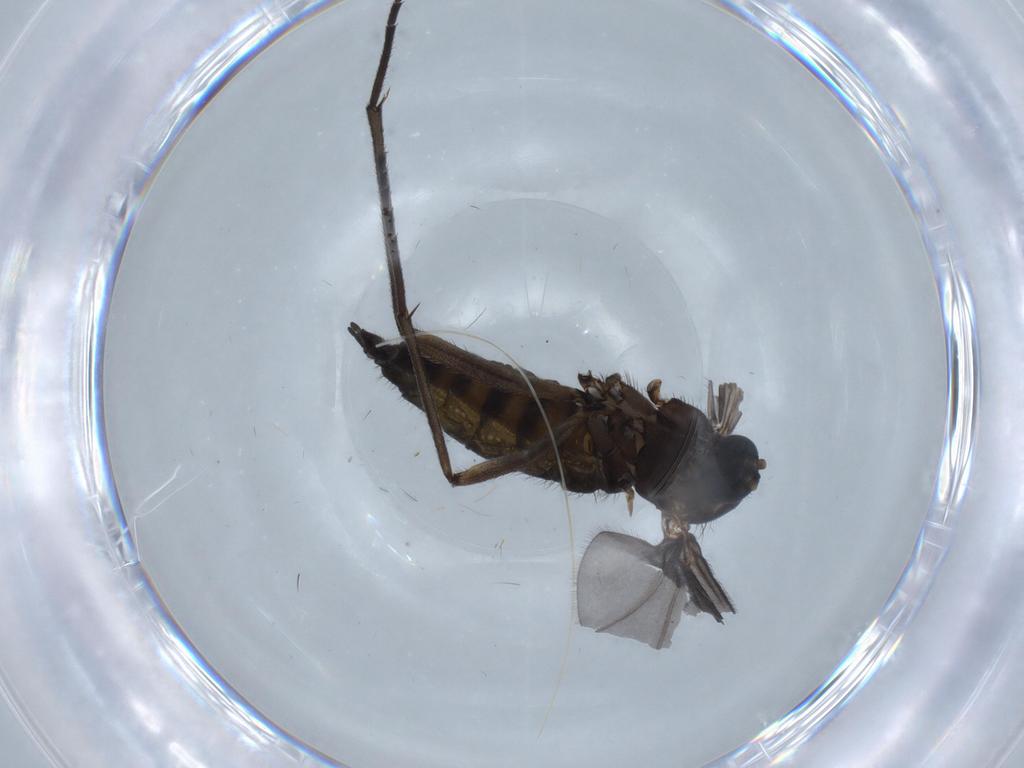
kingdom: Animalia
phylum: Arthropoda
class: Insecta
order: Diptera
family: Sciaridae
